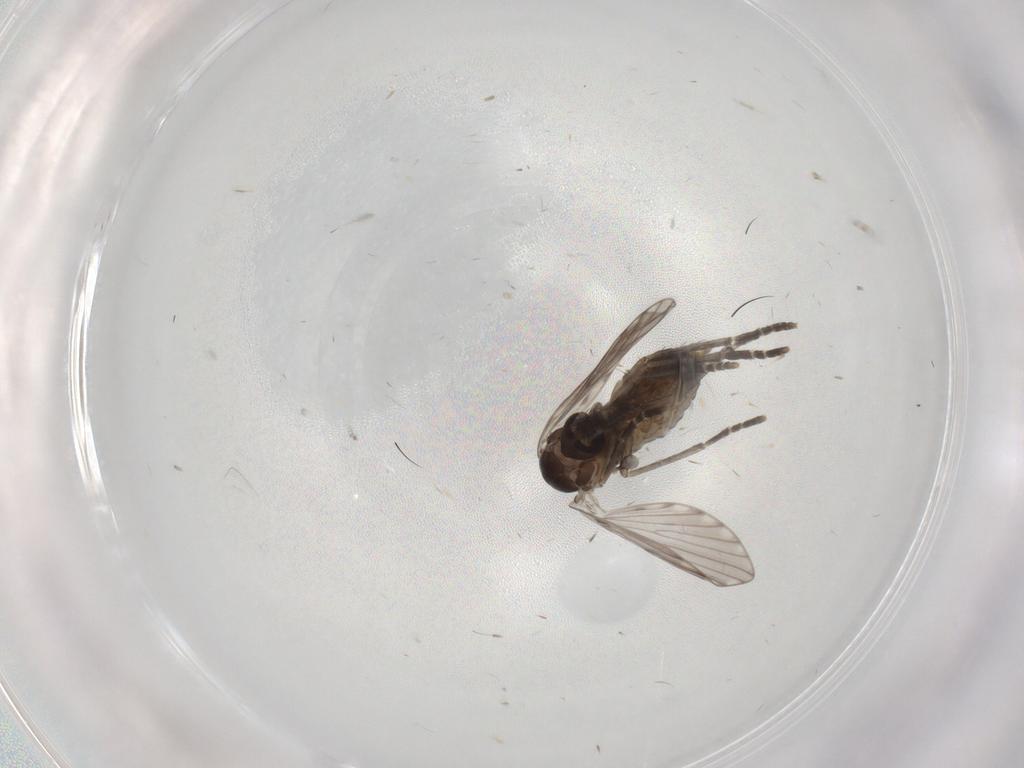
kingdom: Animalia
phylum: Arthropoda
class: Insecta
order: Diptera
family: Psychodidae
